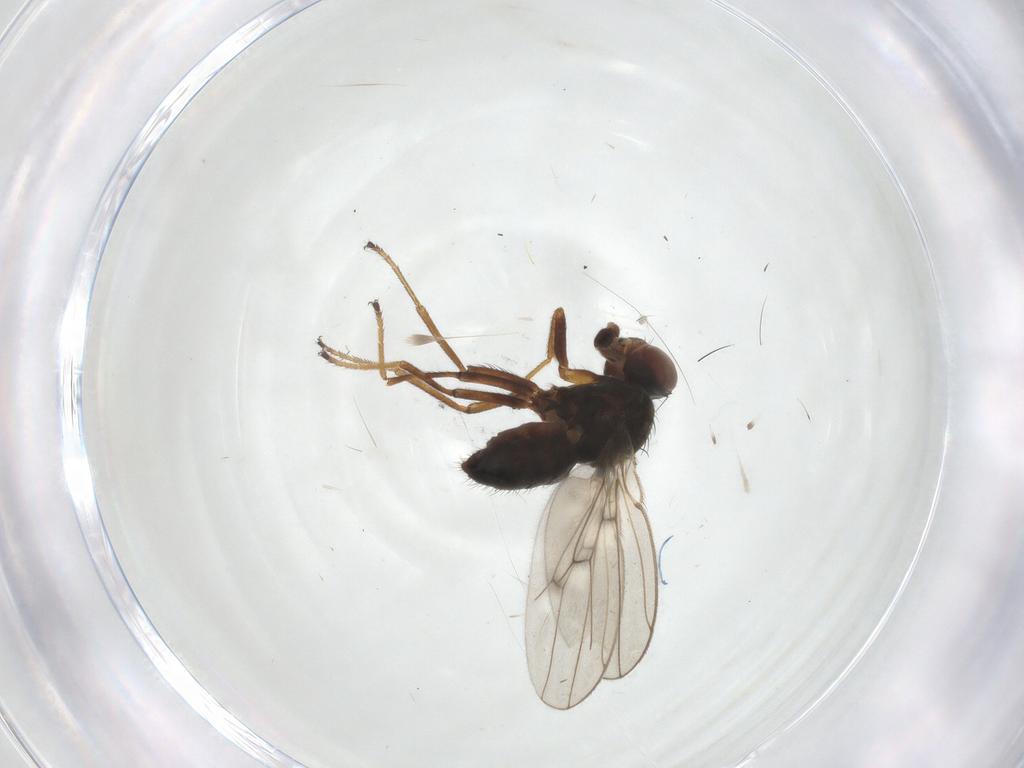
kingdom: Animalia
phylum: Arthropoda
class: Insecta
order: Diptera
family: Ephydridae
